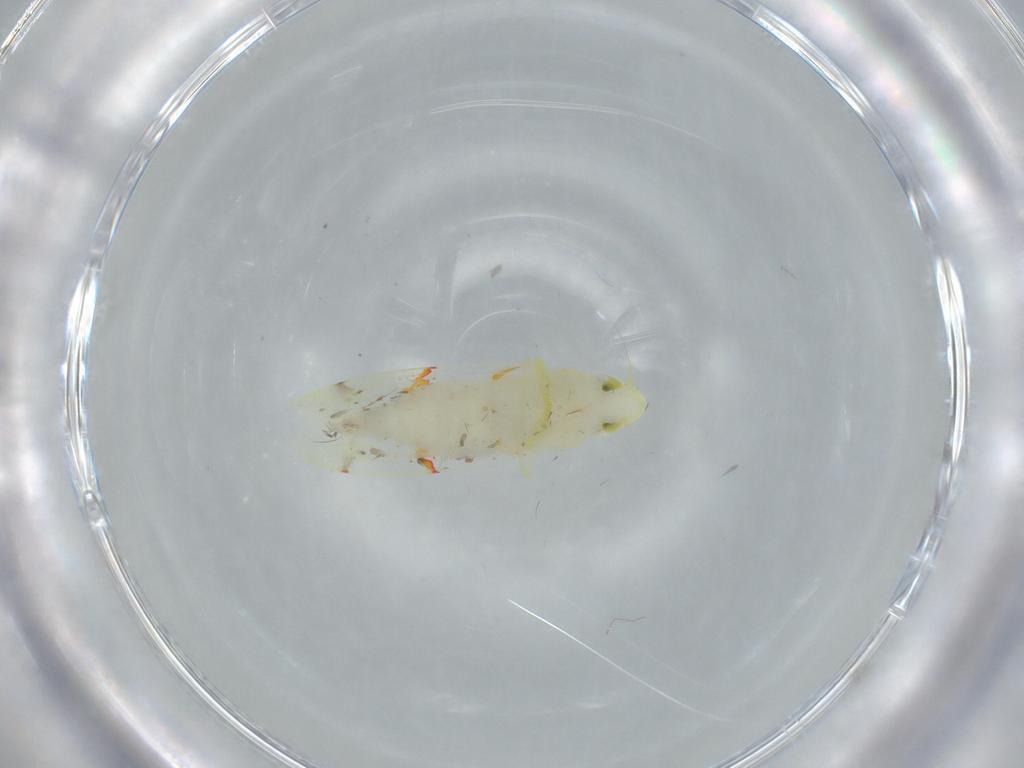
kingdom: Animalia
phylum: Arthropoda
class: Insecta
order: Hemiptera
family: Cicadellidae
